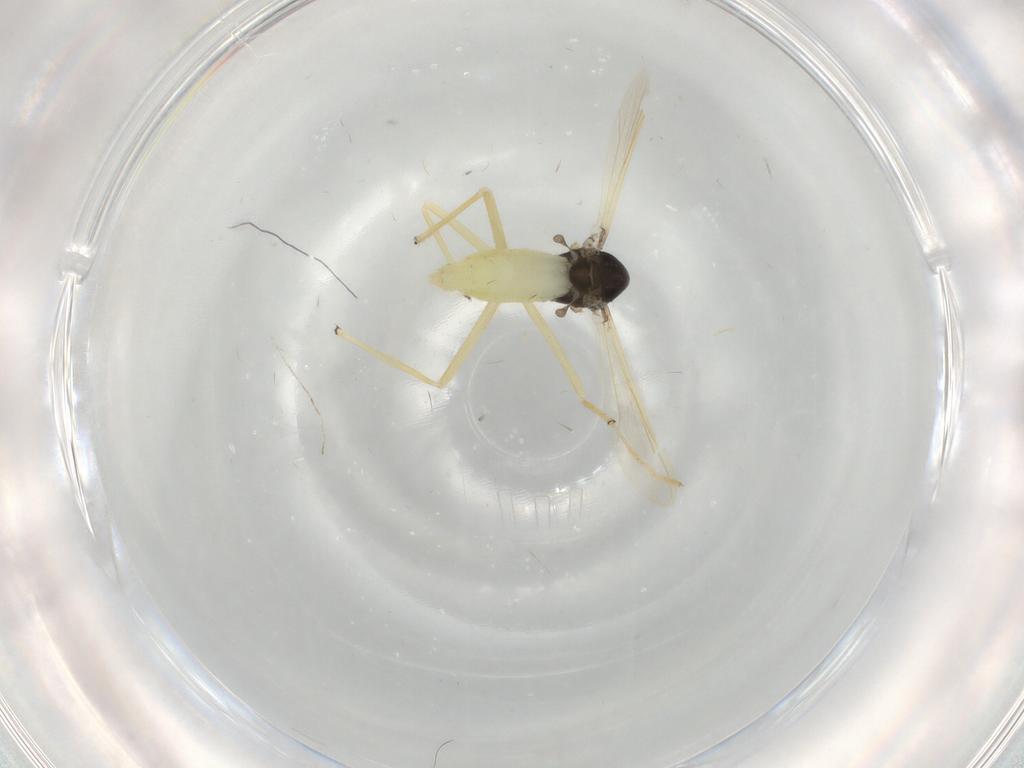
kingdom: Animalia
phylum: Arthropoda
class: Insecta
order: Diptera
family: Chironomidae
